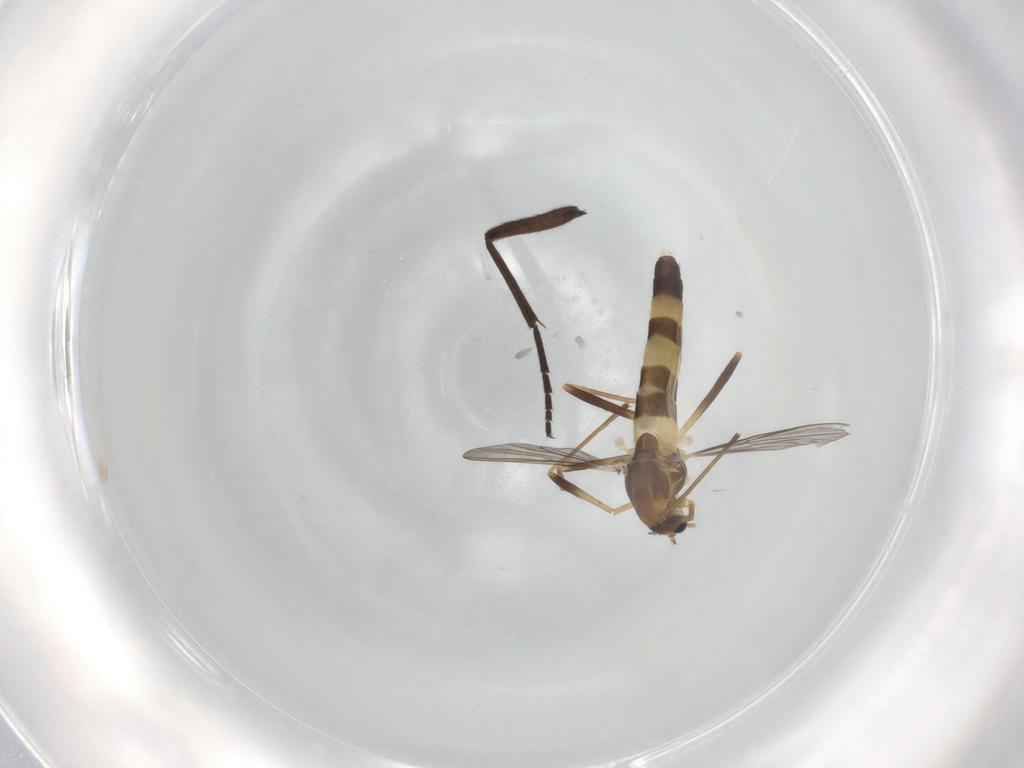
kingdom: Animalia
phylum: Arthropoda
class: Insecta
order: Diptera
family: Chironomidae
